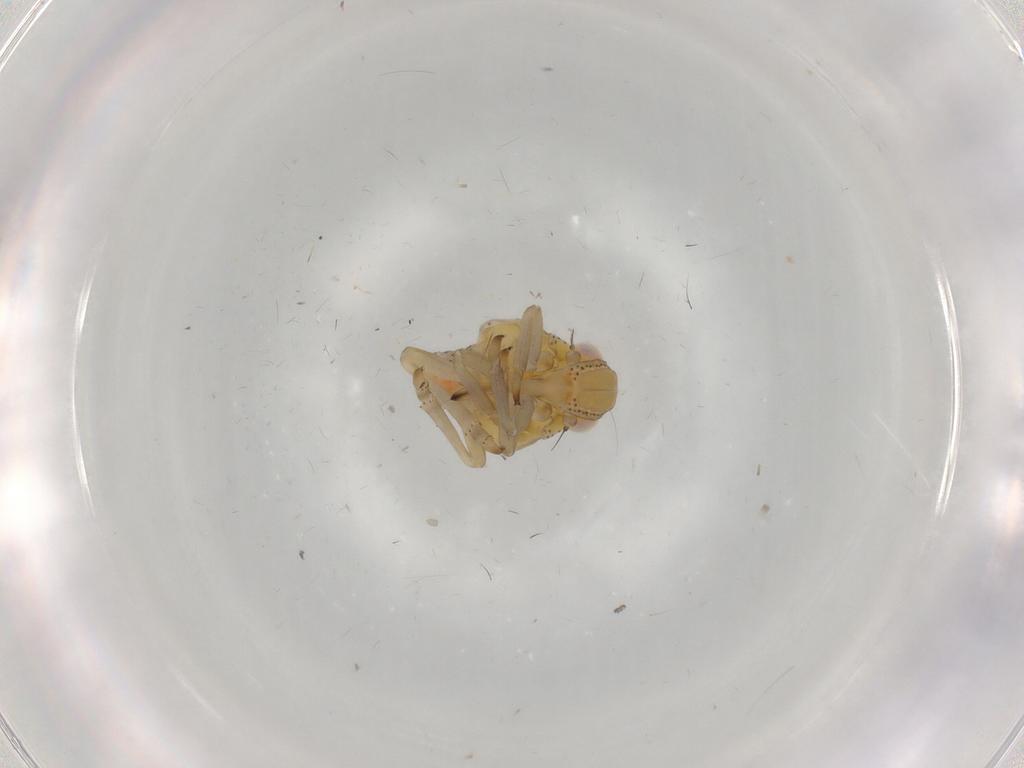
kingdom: Animalia
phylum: Arthropoda
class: Insecta
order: Hemiptera
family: Tropiduchidae
